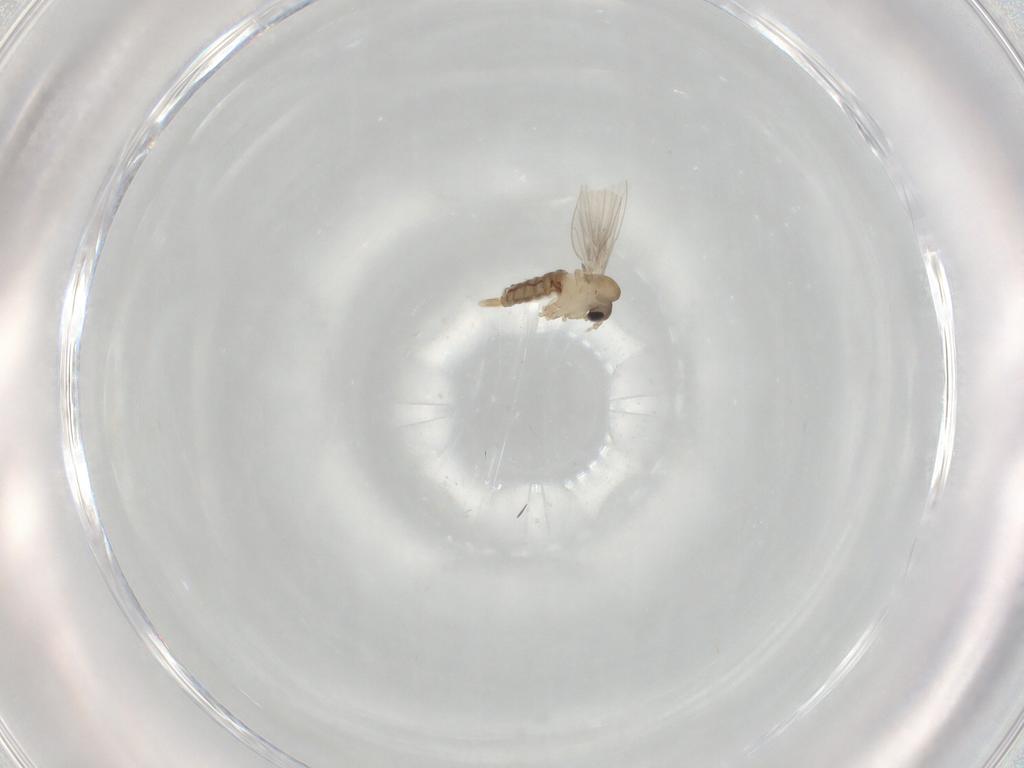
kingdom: Animalia
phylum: Arthropoda
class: Insecta
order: Diptera
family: Psychodidae
